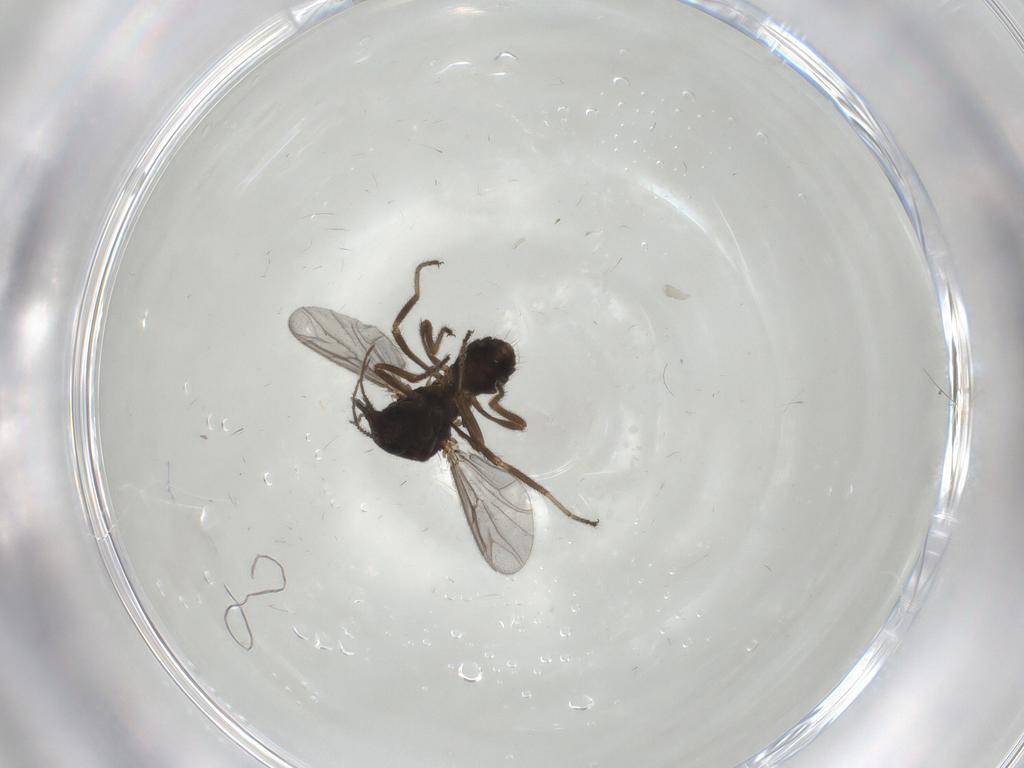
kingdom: Animalia
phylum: Arthropoda
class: Insecta
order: Diptera
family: Ceratopogonidae
